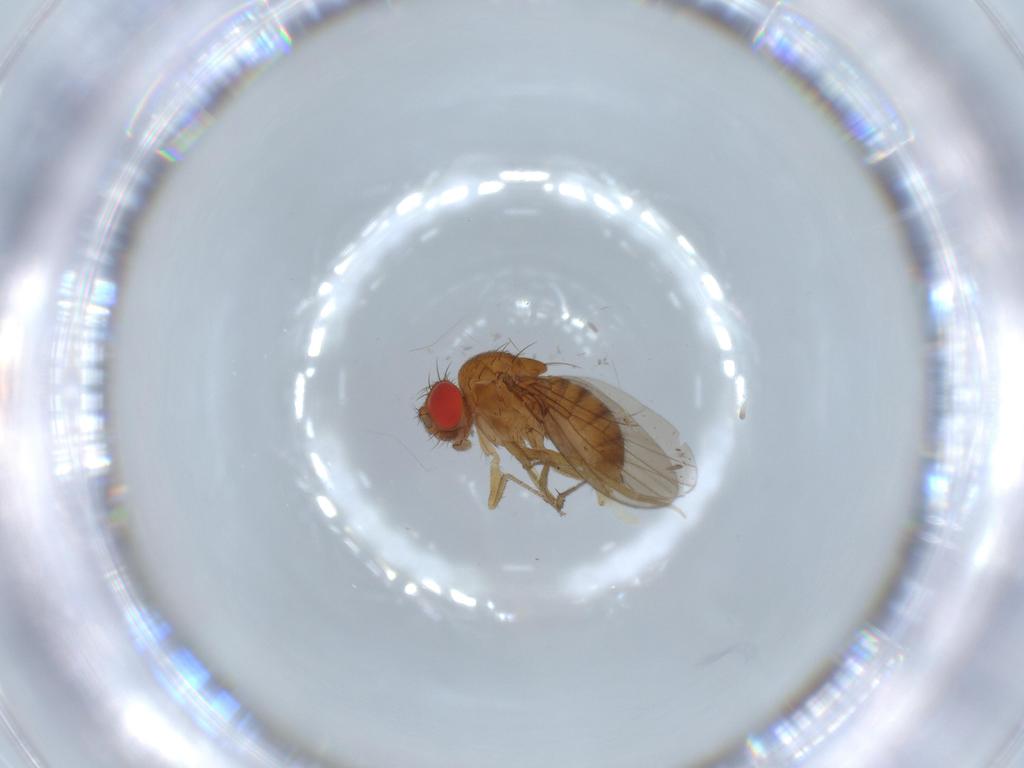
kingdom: Animalia
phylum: Arthropoda
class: Insecta
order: Diptera
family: Drosophilidae
